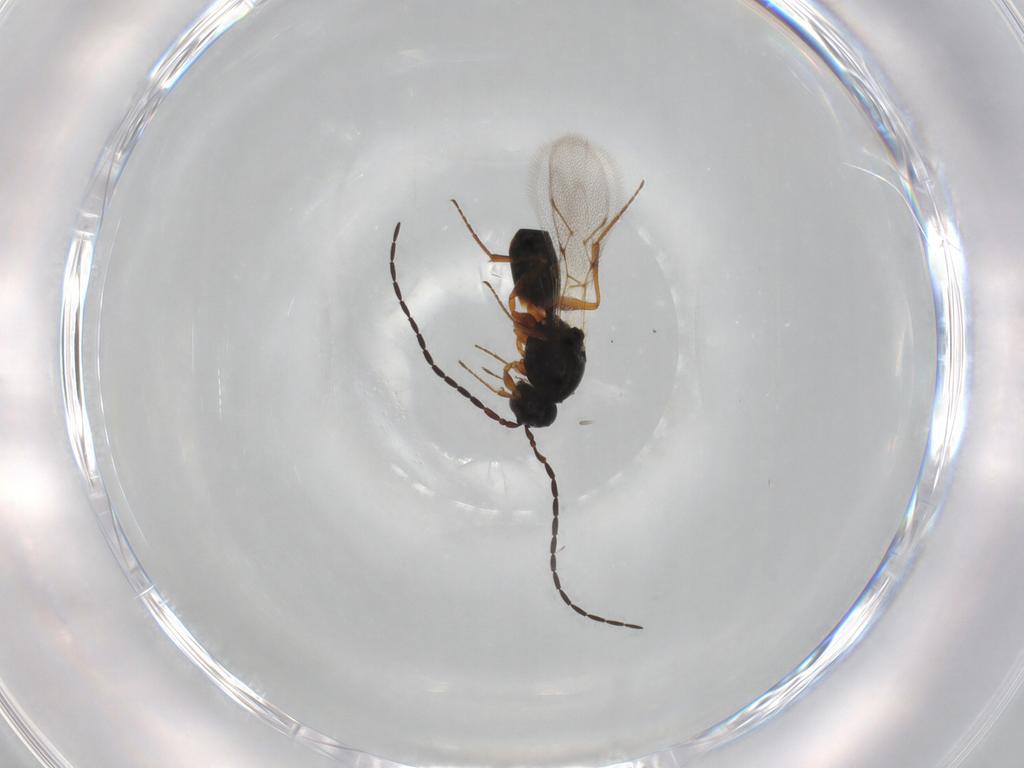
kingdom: Animalia
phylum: Arthropoda
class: Insecta
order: Hymenoptera
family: Figitidae
